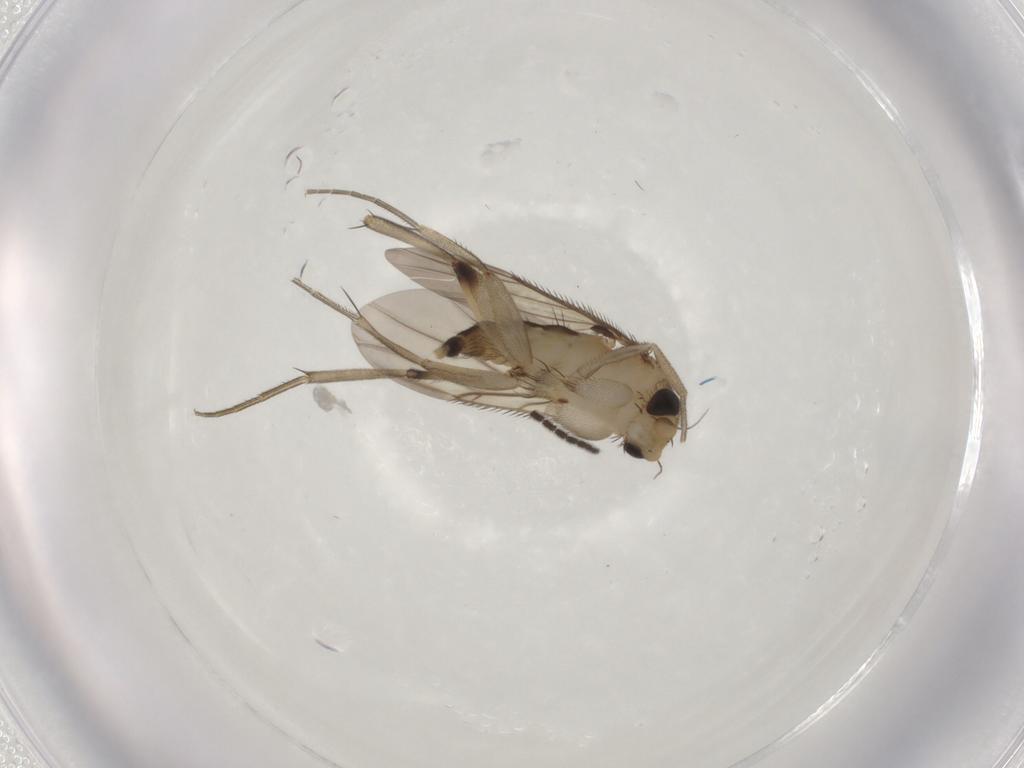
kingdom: Animalia
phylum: Arthropoda
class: Insecta
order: Diptera
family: Phoridae
